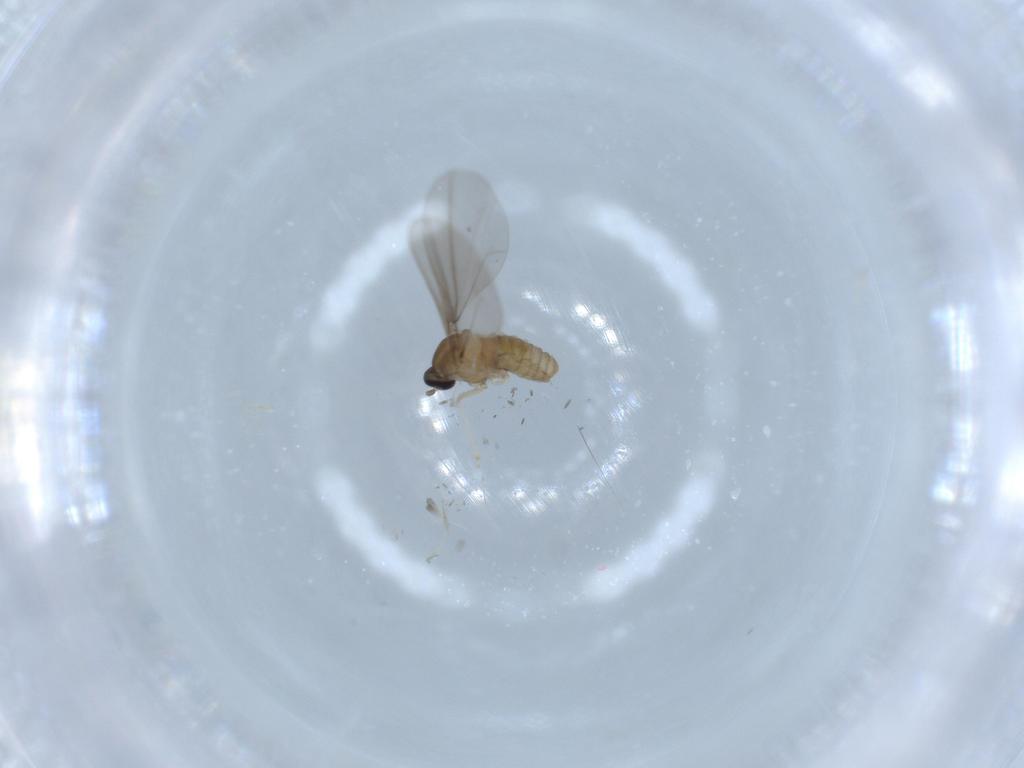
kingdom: Animalia
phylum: Arthropoda
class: Insecta
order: Diptera
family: Cecidomyiidae
